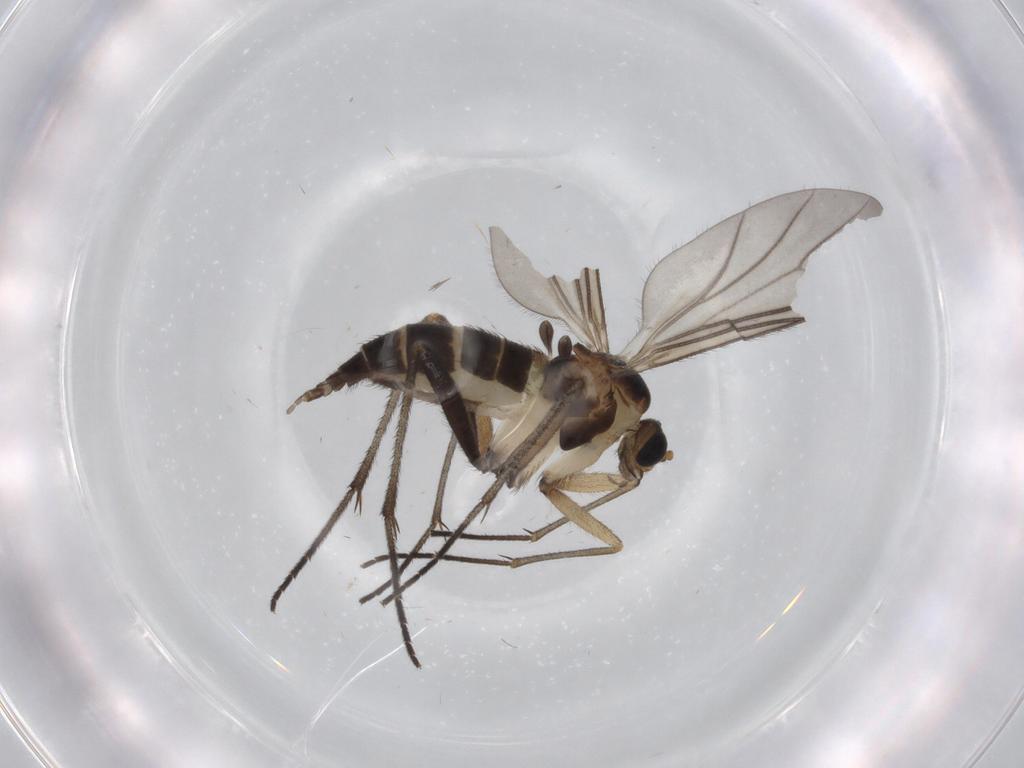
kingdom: Animalia
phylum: Arthropoda
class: Insecta
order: Diptera
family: Sciaridae
